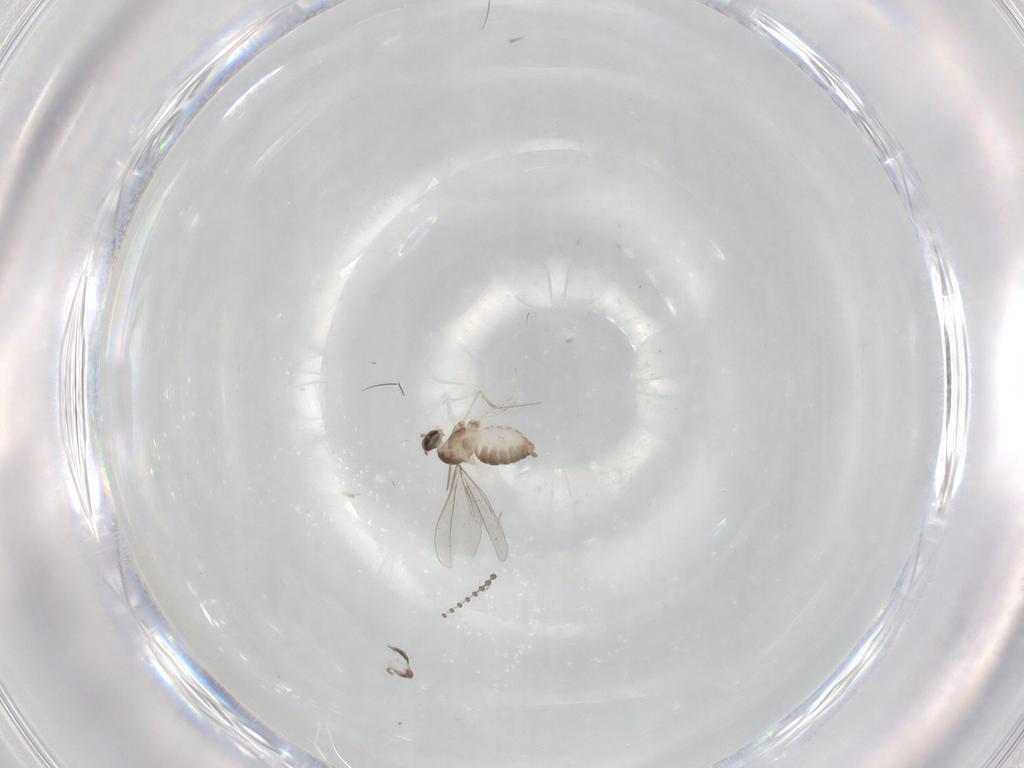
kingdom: Animalia
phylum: Arthropoda
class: Insecta
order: Diptera
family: Cecidomyiidae
